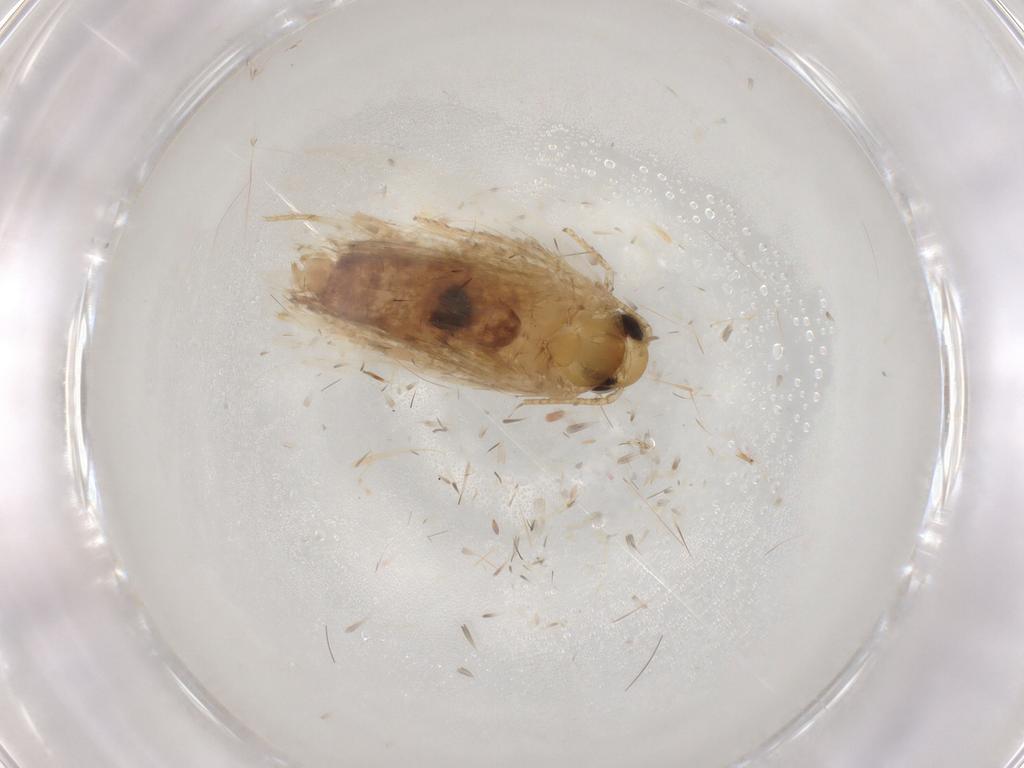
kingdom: Animalia
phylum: Arthropoda
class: Insecta
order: Lepidoptera
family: Depressariidae
